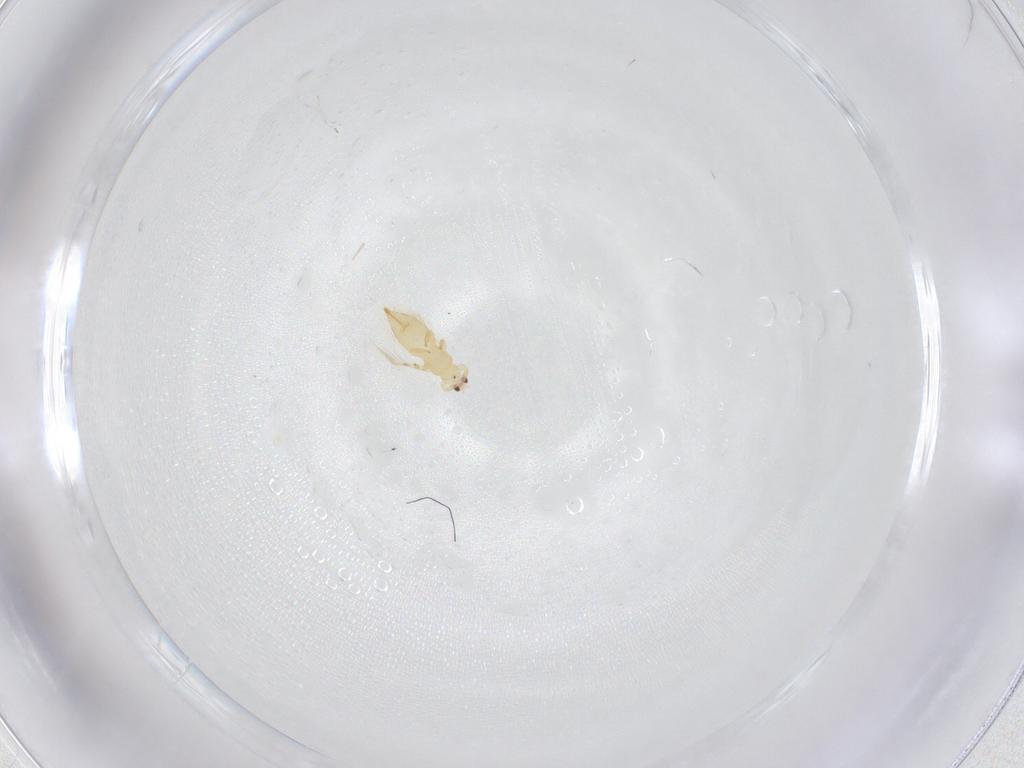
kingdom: Animalia
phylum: Arthropoda
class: Insecta
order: Thysanoptera
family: Thripidae
